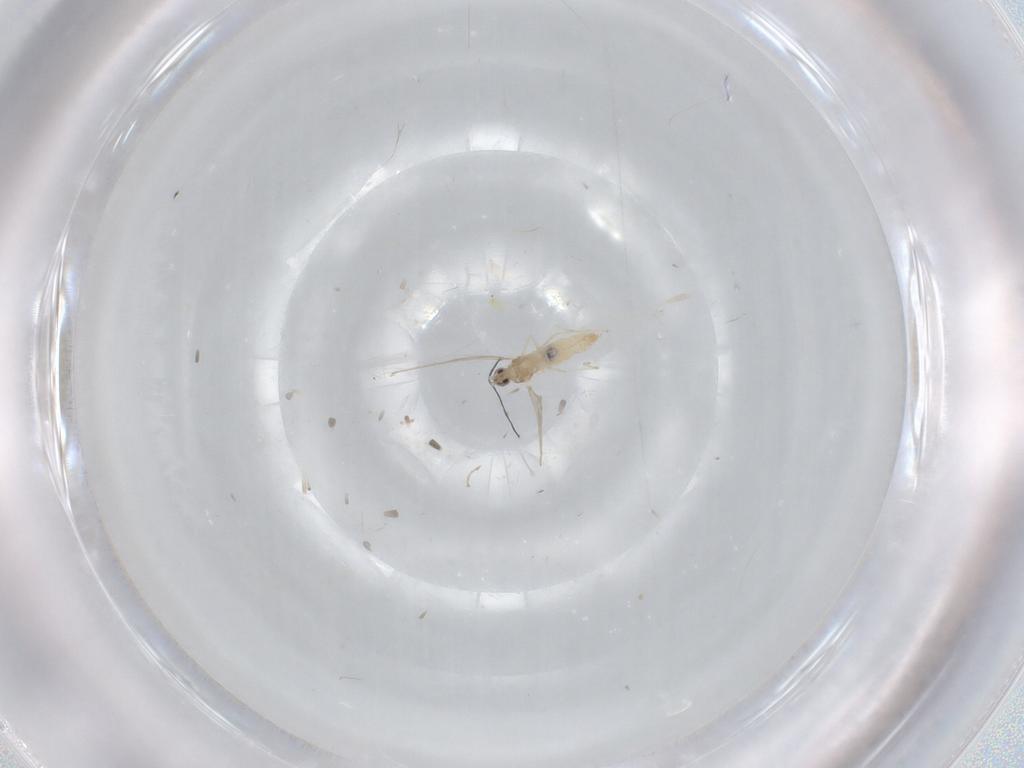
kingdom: Animalia
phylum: Arthropoda
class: Insecta
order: Diptera
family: Cecidomyiidae
